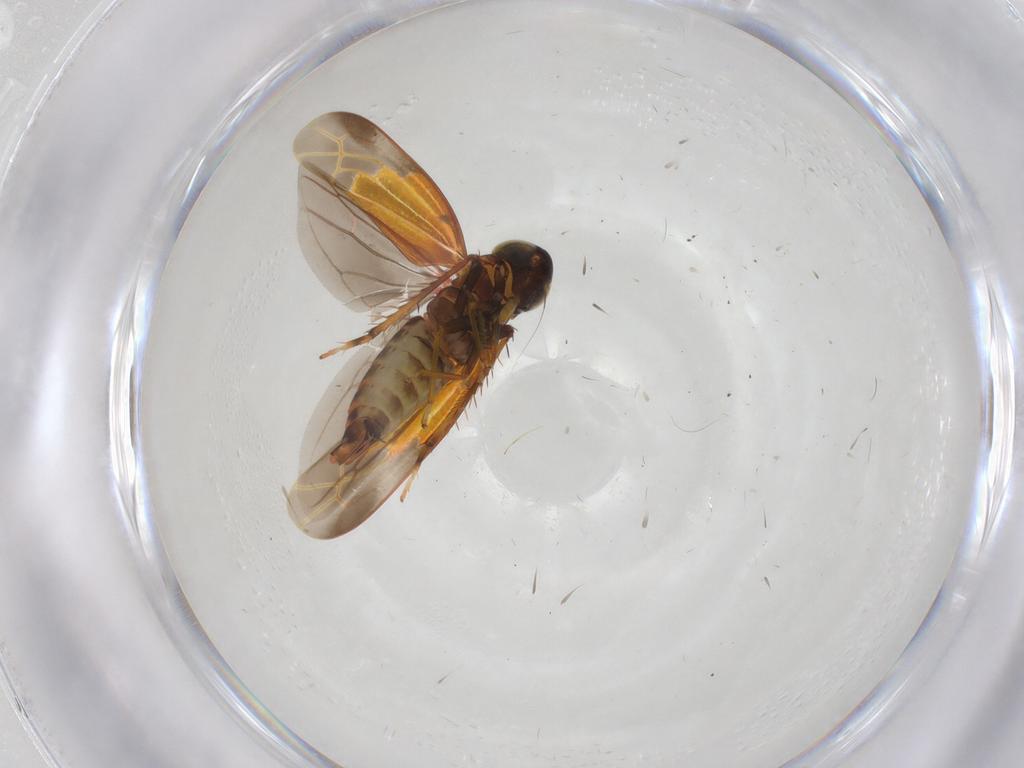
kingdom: Animalia
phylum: Arthropoda
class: Insecta
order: Hemiptera
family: Cicadellidae
